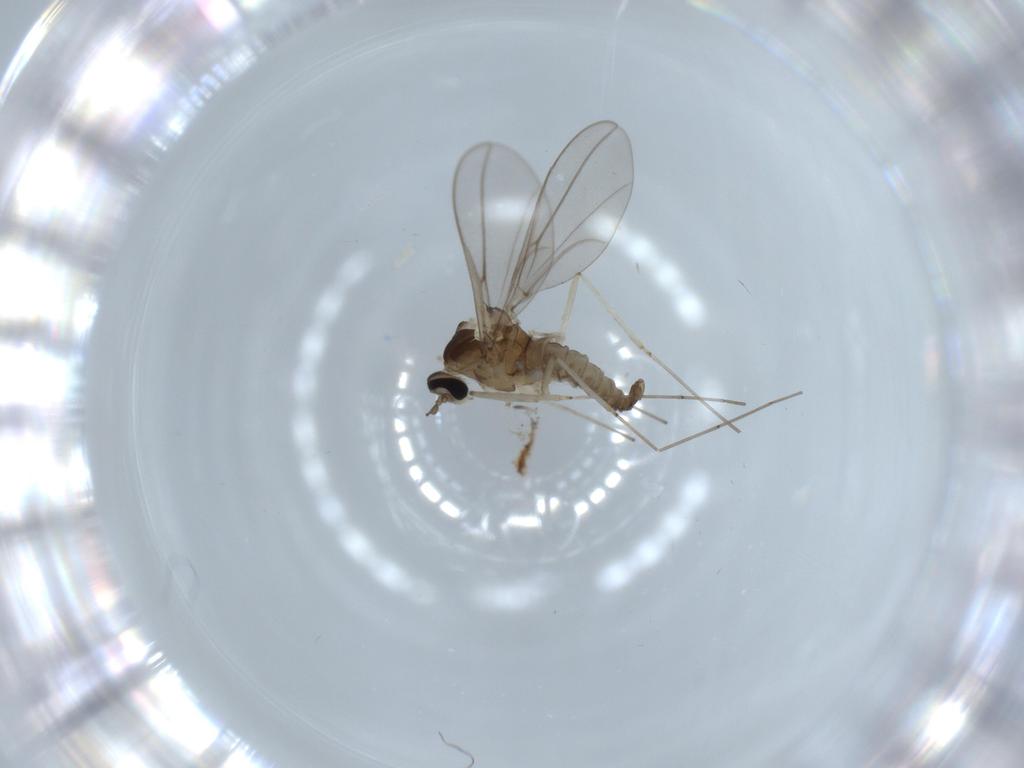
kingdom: Animalia
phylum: Arthropoda
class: Insecta
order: Diptera
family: Cecidomyiidae
